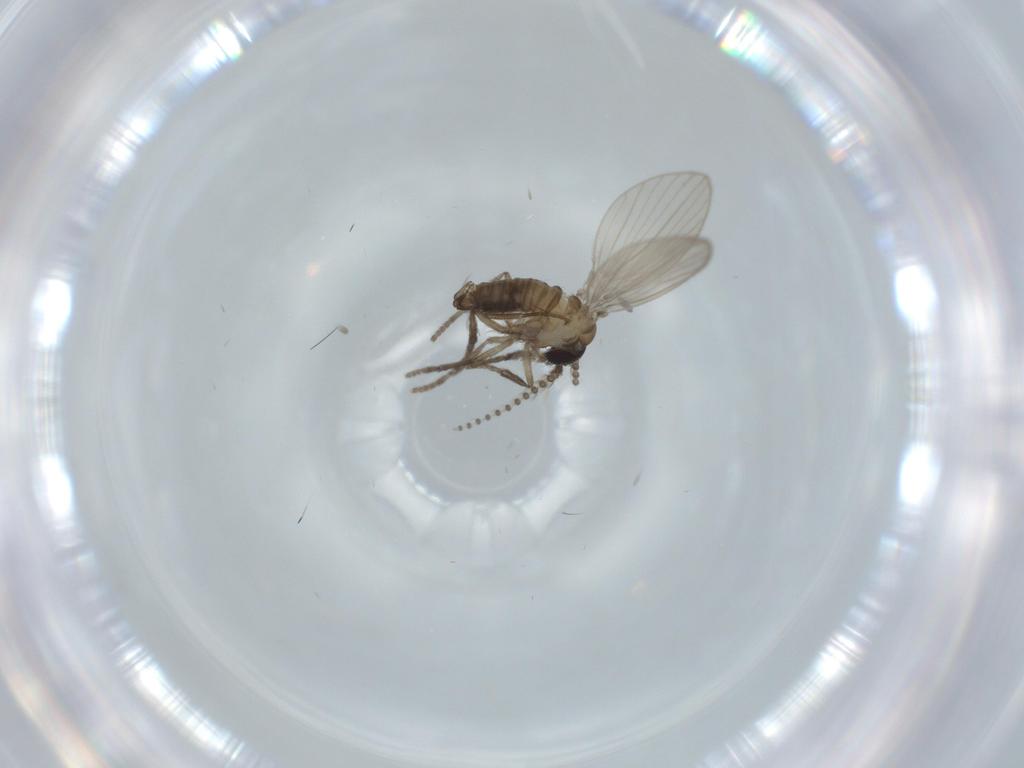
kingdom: Animalia
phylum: Arthropoda
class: Insecta
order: Diptera
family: Psychodidae
